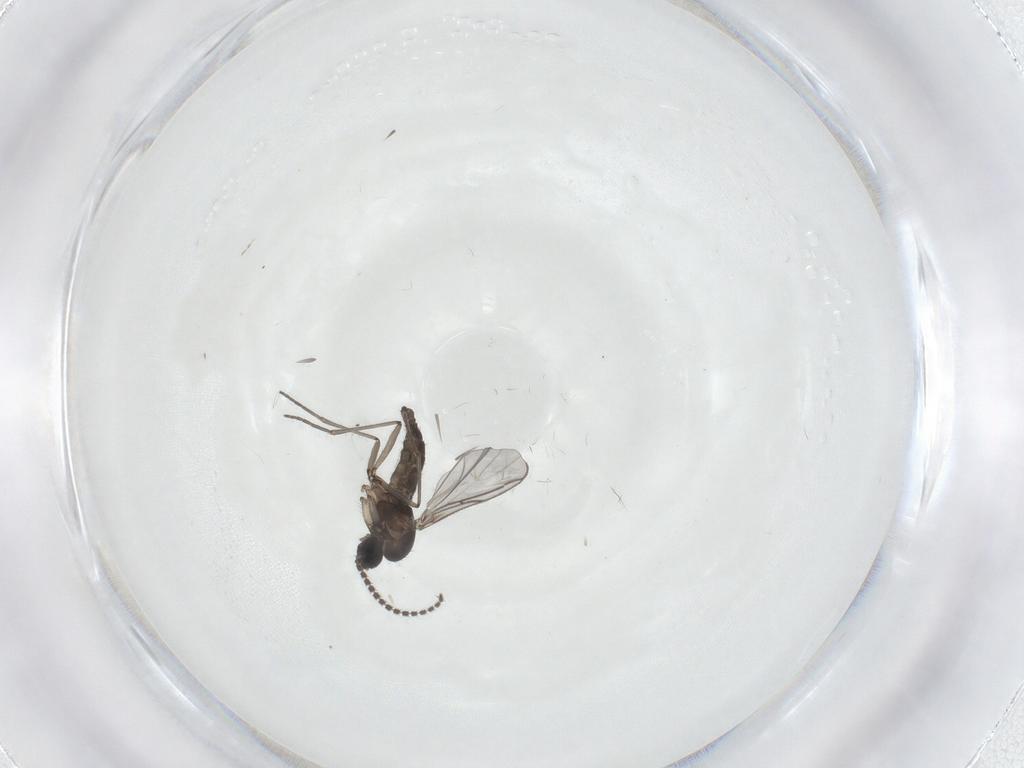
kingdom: Animalia
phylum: Arthropoda
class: Insecta
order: Diptera
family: Sciaridae
